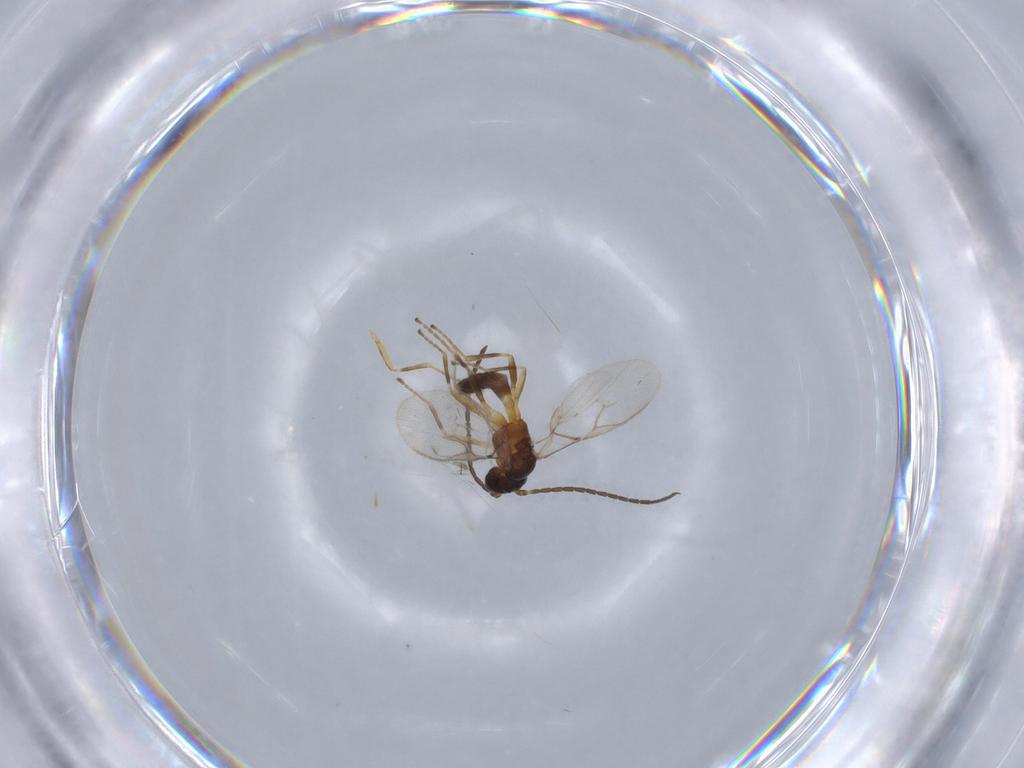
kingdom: Animalia
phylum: Arthropoda
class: Insecta
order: Hymenoptera
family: Braconidae
